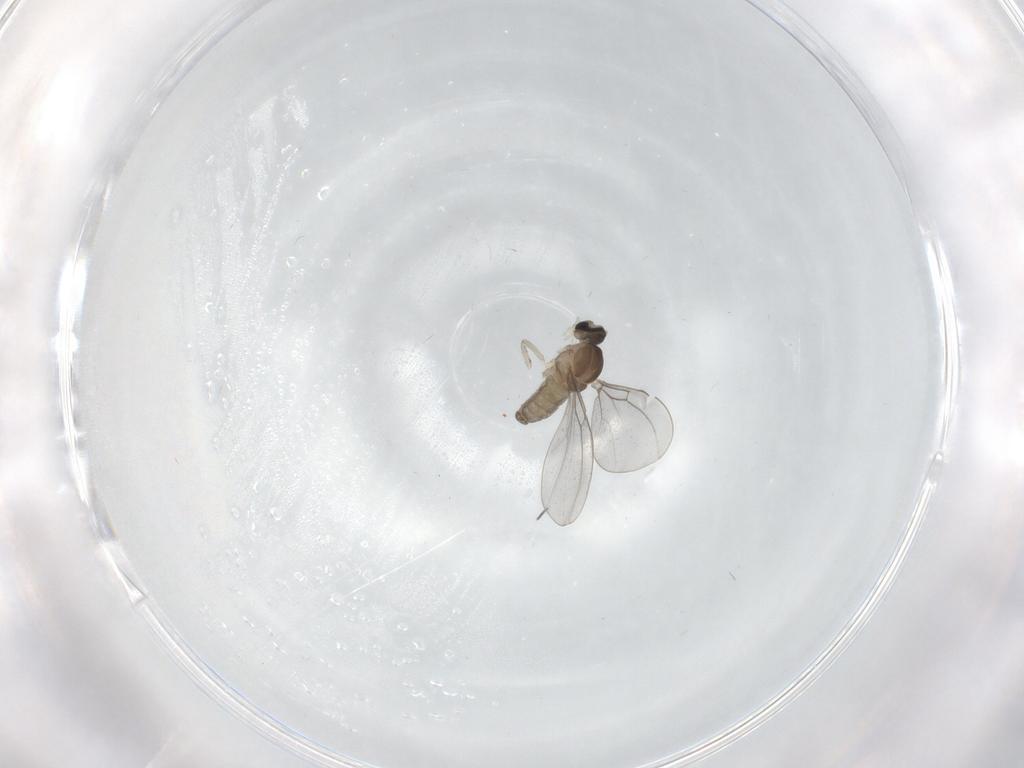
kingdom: Animalia
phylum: Arthropoda
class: Insecta
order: Diptera
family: Cecidomyiidae
